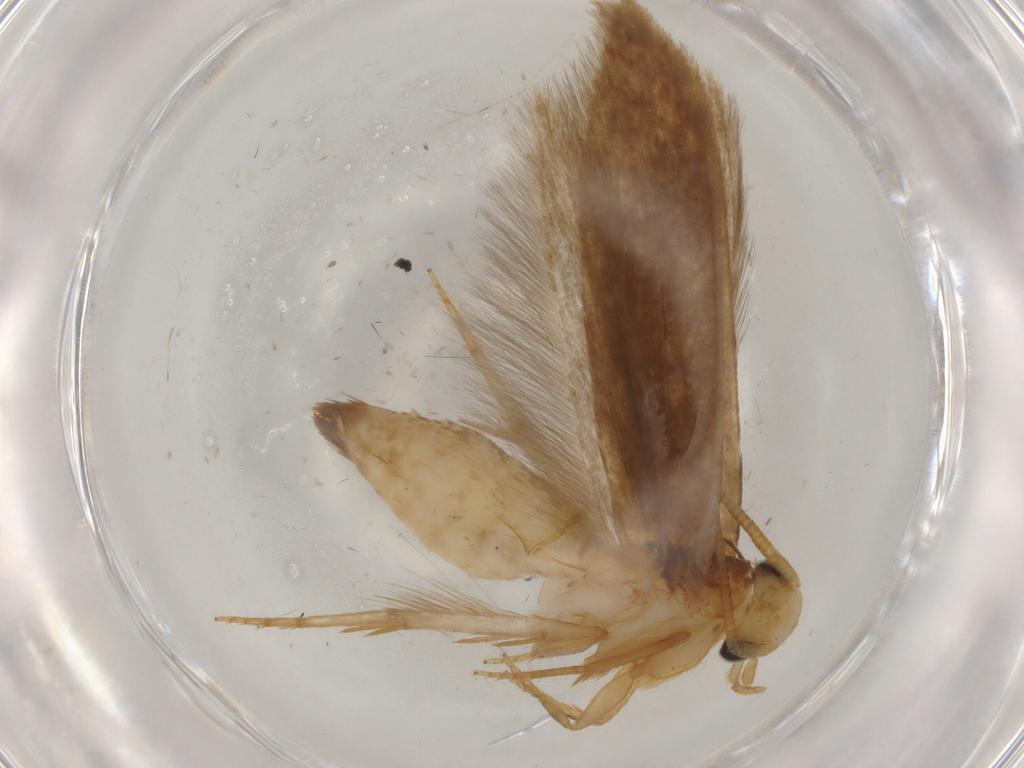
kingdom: Animalia
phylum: Arthropoda
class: Insecta
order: Lepidoptera
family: Tineidae
